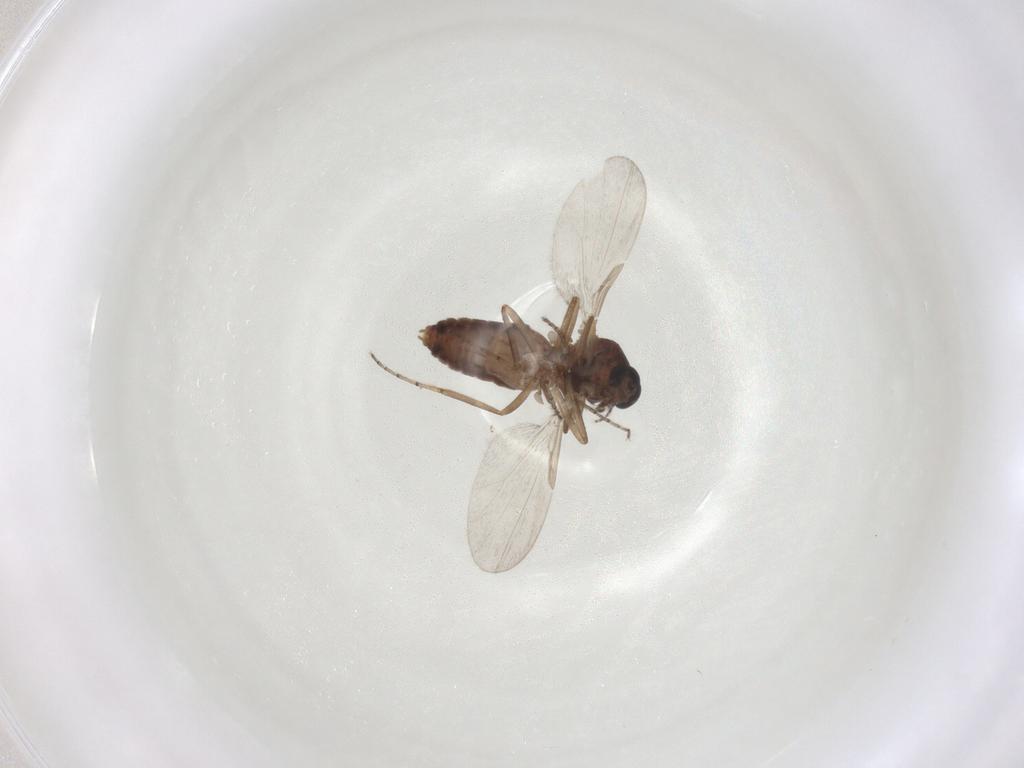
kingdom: Animalia
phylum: Arthropoda
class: Insecta
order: Diptera
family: Ceratopogonidae
